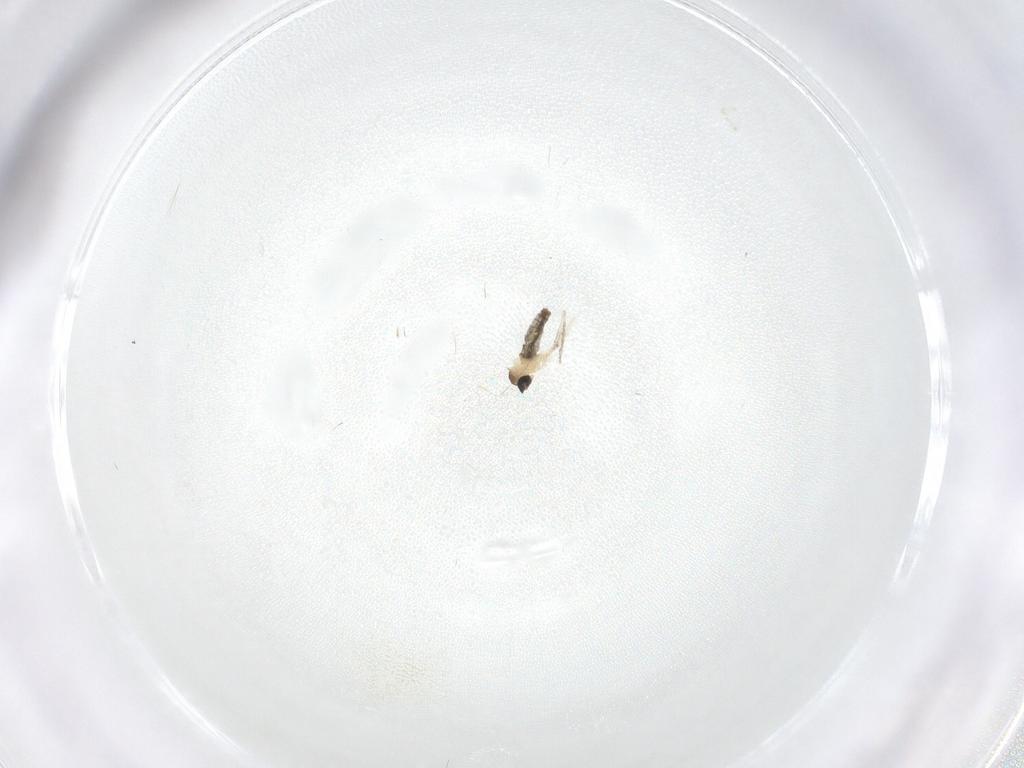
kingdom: Animalia
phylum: Arthropoda
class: Insecta
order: Diptera
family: Cecidomyiidae
